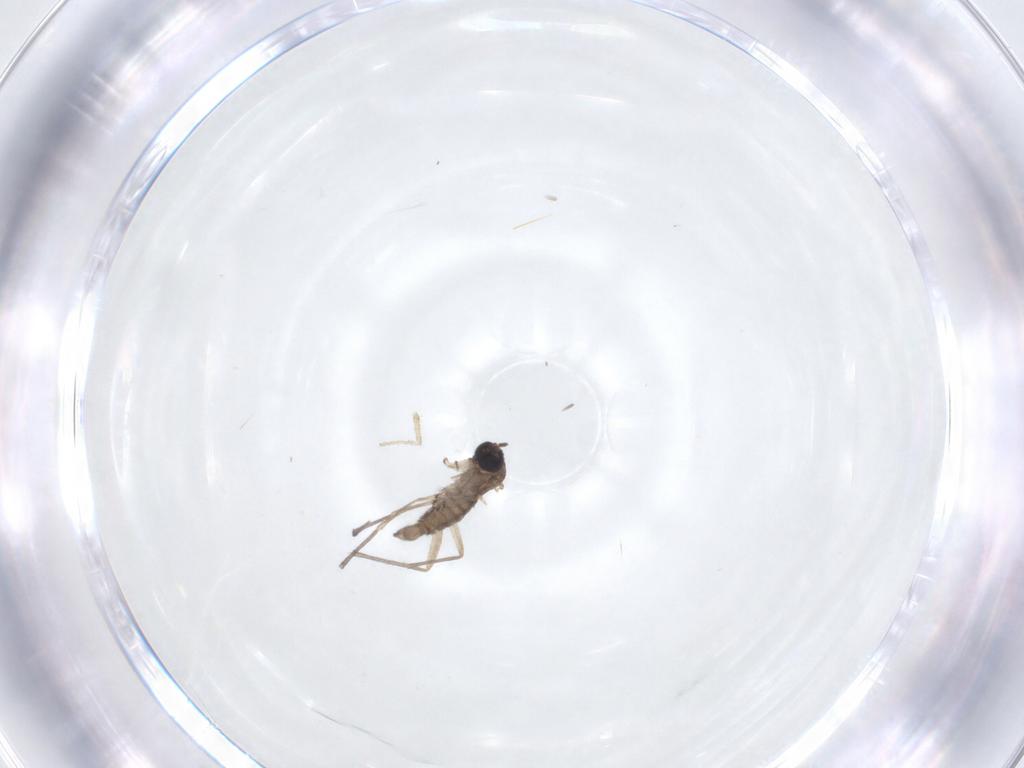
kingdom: Animalia
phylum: Arthropoda
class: Insecta
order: Diptera
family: Sciaridae
